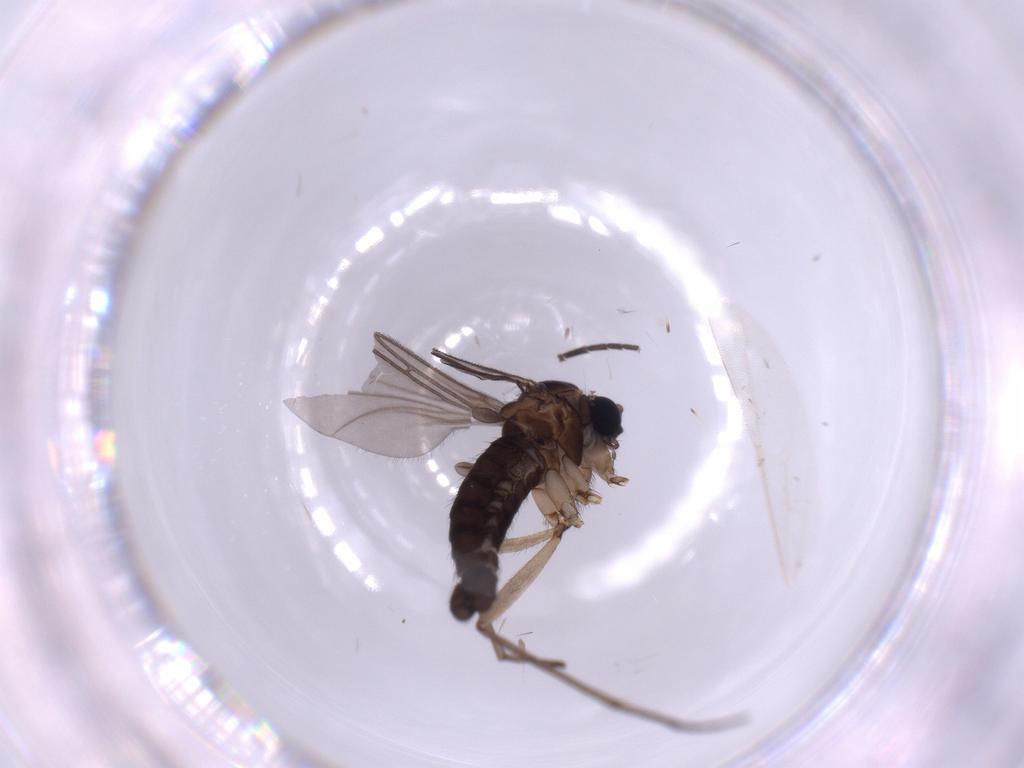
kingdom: Animalia
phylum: Arthropoda
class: Insecta
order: Diptera
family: Sciaridae
